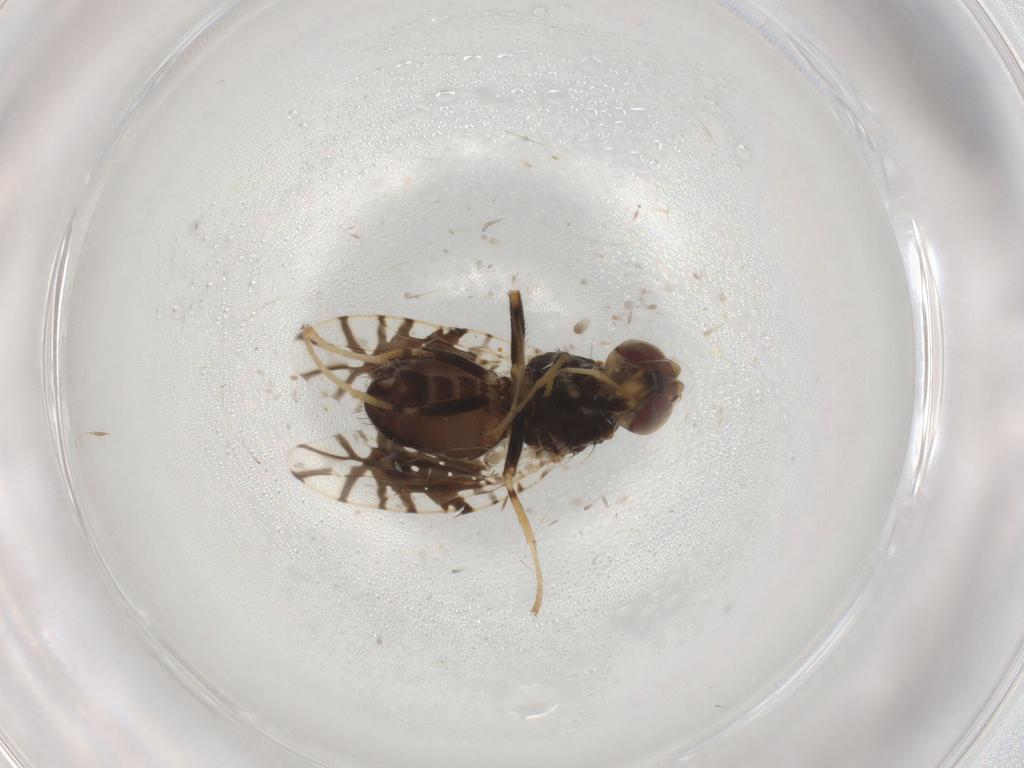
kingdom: Animalia
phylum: Arthropoda
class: Insecta
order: Diptera
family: Tephritidae
